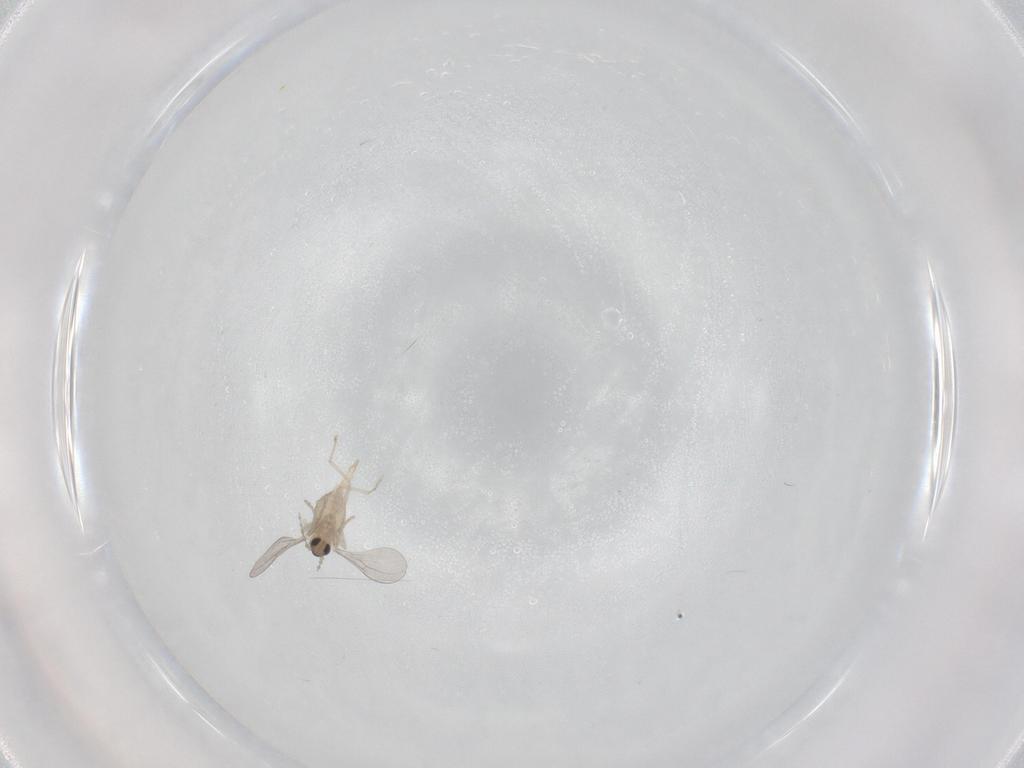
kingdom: Animalia
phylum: Arthropoda
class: Insecta
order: Diptera
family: Cecidomyiidae
